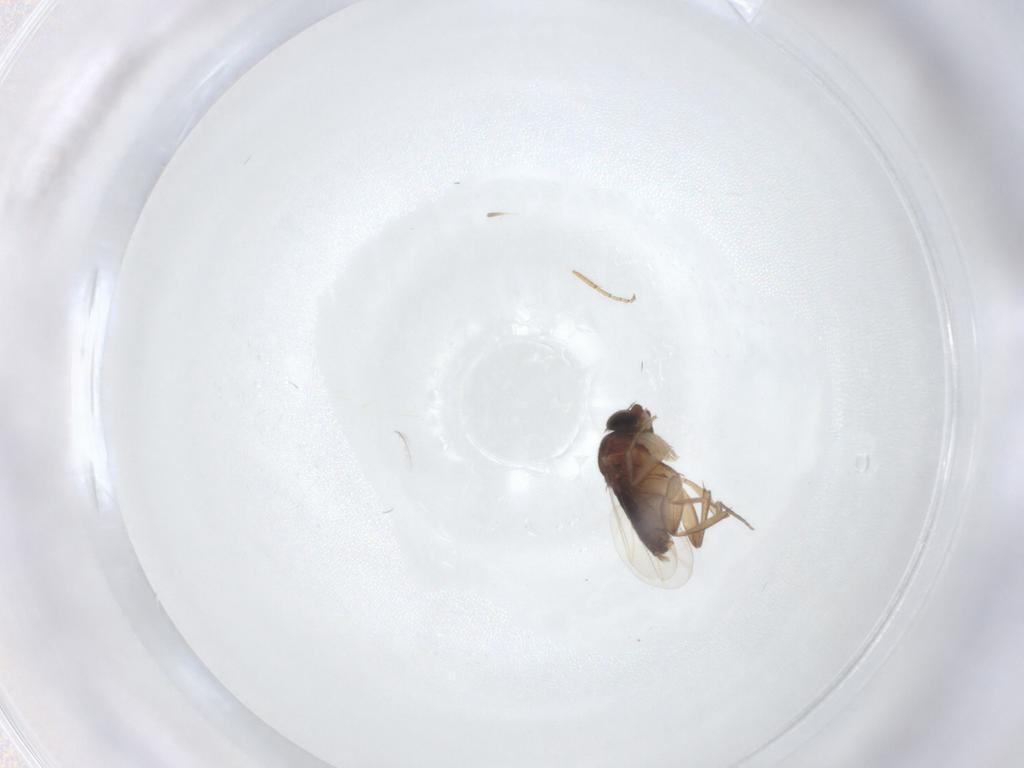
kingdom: Animalia
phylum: Arthropoda
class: Insecta
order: Diptera
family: Phoridae
